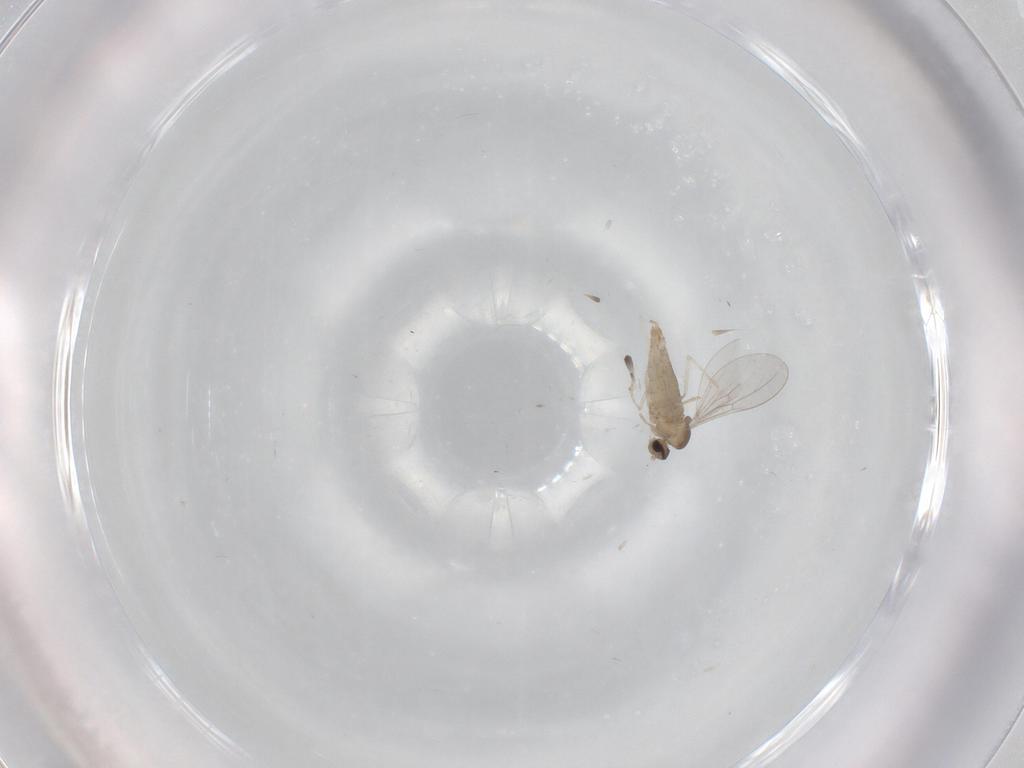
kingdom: Animalia
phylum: Arthropoda
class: Insecta
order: Diptera
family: Cecidomyiidae
